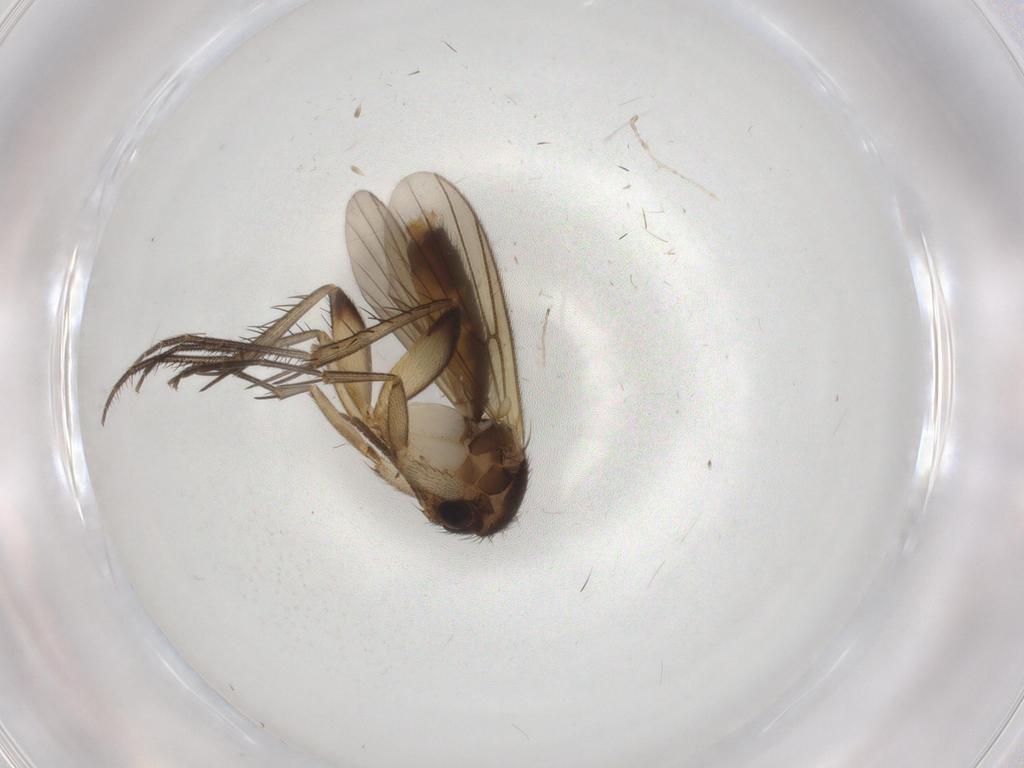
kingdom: Animalia
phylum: Arthropoda
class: Insecta
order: Diptera
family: Mycetophilidae
